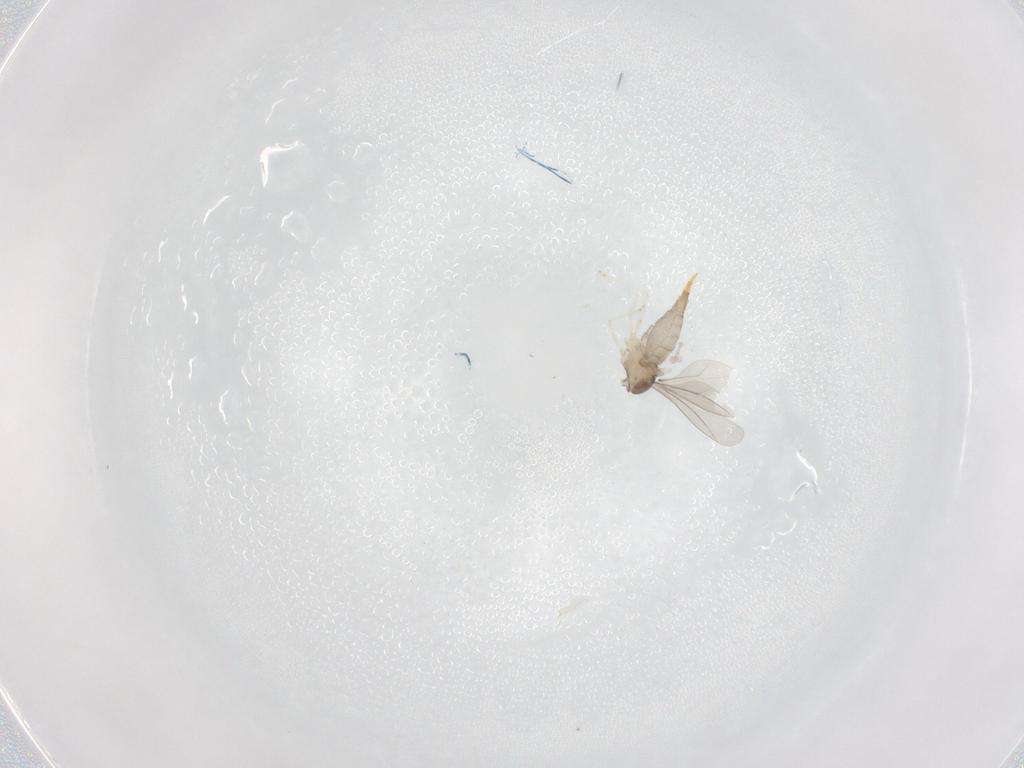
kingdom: Animalia
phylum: Arthropoda
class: Insecta
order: Diptera
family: Cecidomyiidae
